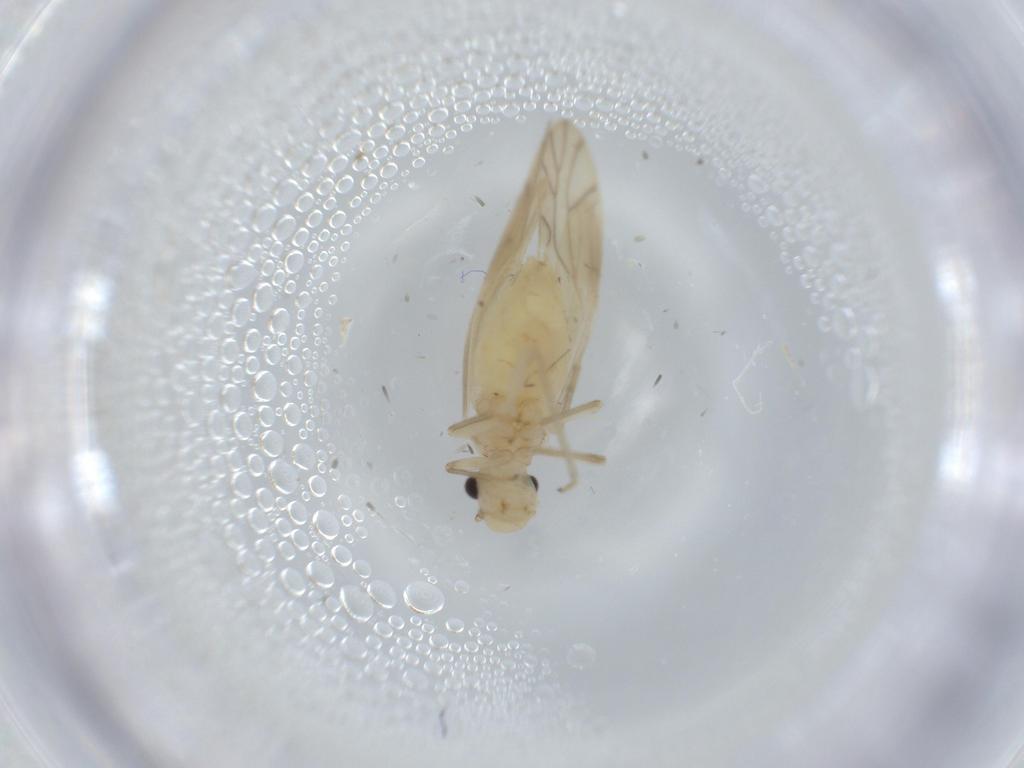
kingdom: Animalia
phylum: Arthropoda
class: Insecta
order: Psocodea
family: Caeciliusidae
